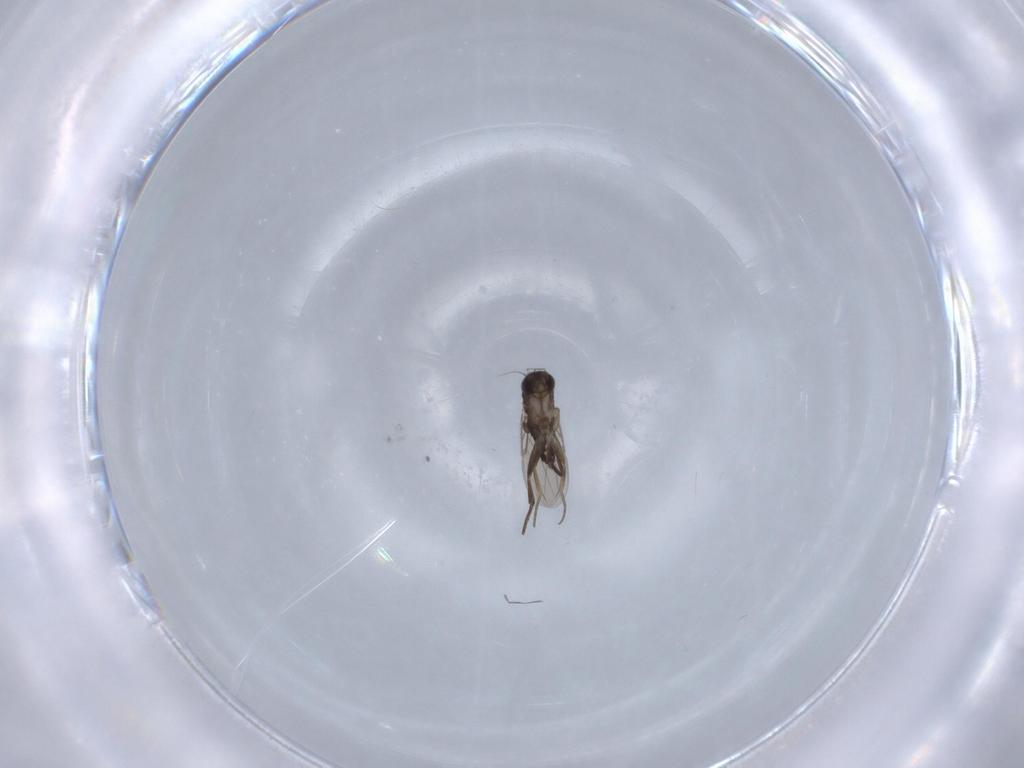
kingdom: Animalia
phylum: Arthropoda
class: Insecta
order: Diptera
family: Phoridae
